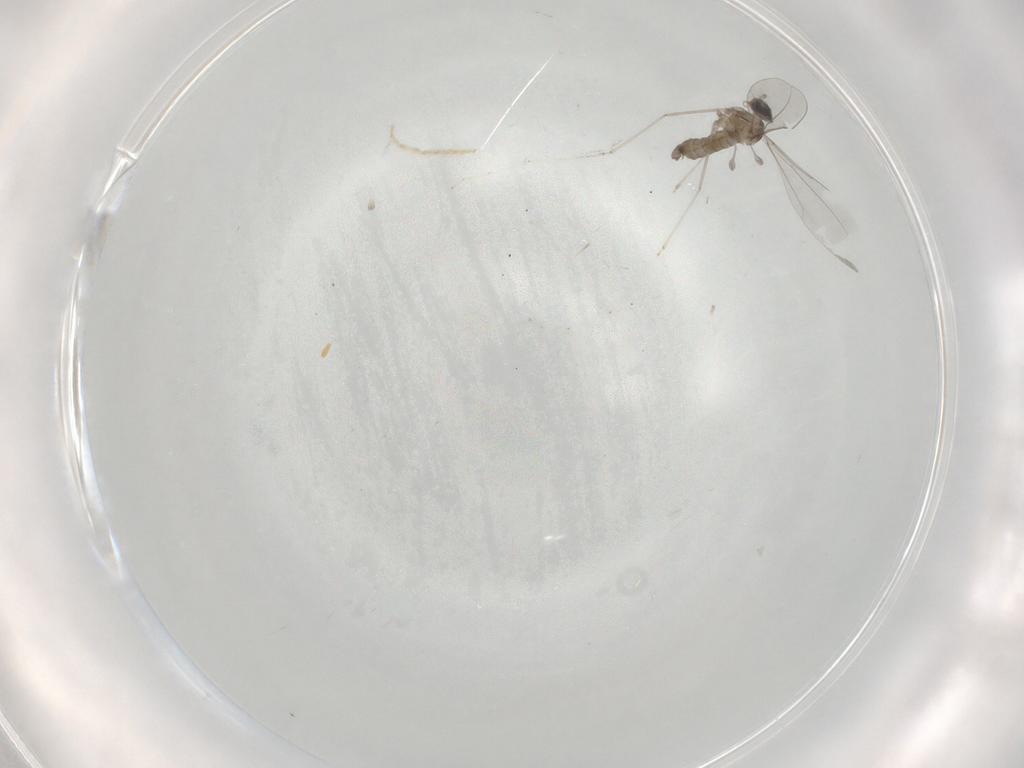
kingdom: Animalia
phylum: Arthropoda
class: Insecta
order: Diptera
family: Cecidomyiidae
